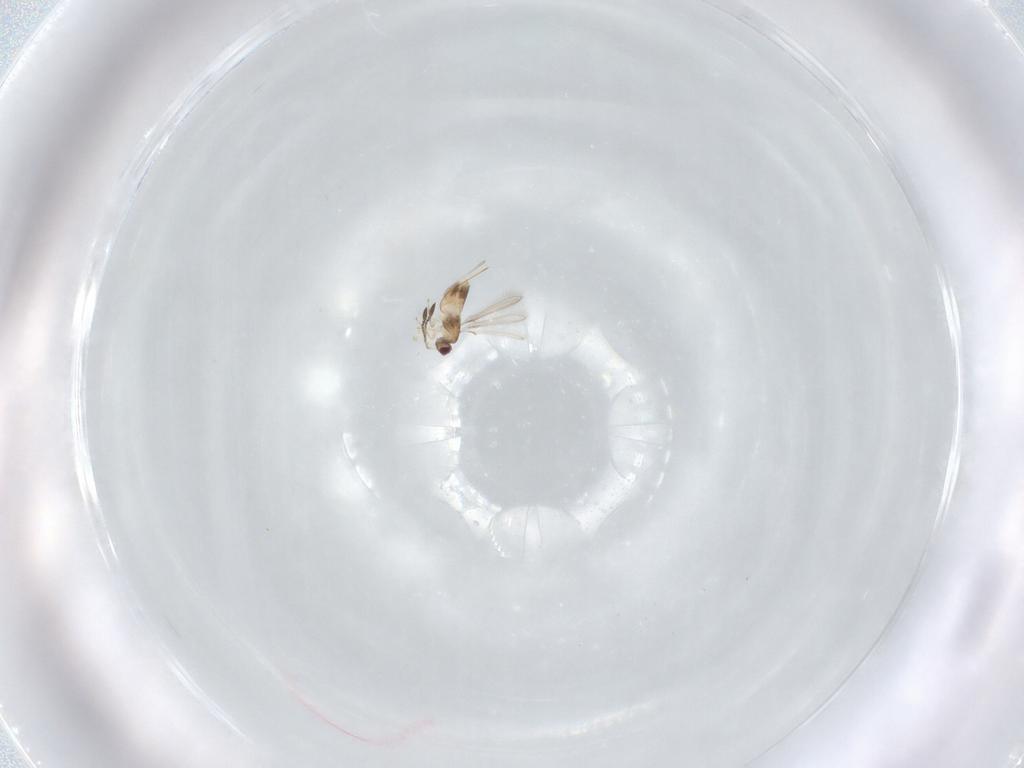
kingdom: Animalia
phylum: Arthropoda
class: Insecta
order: Hymenoptera
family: Mymaridae
